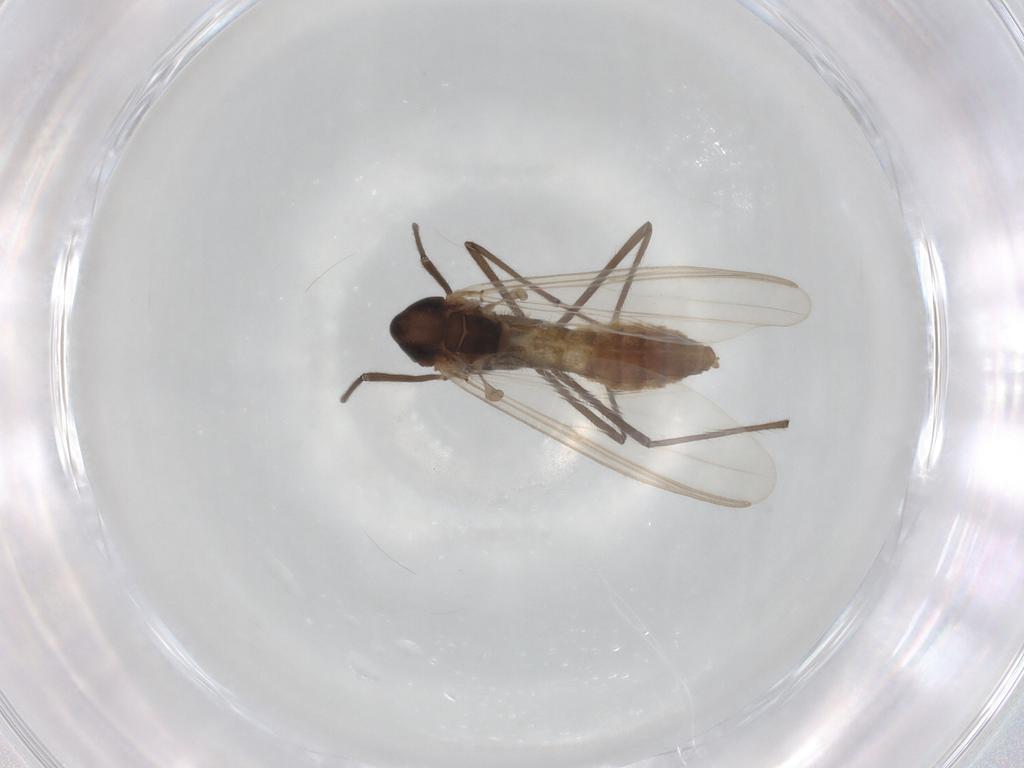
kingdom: Animalia
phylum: Arthropoda
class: Insecta
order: Diptera
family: Chironomidae
